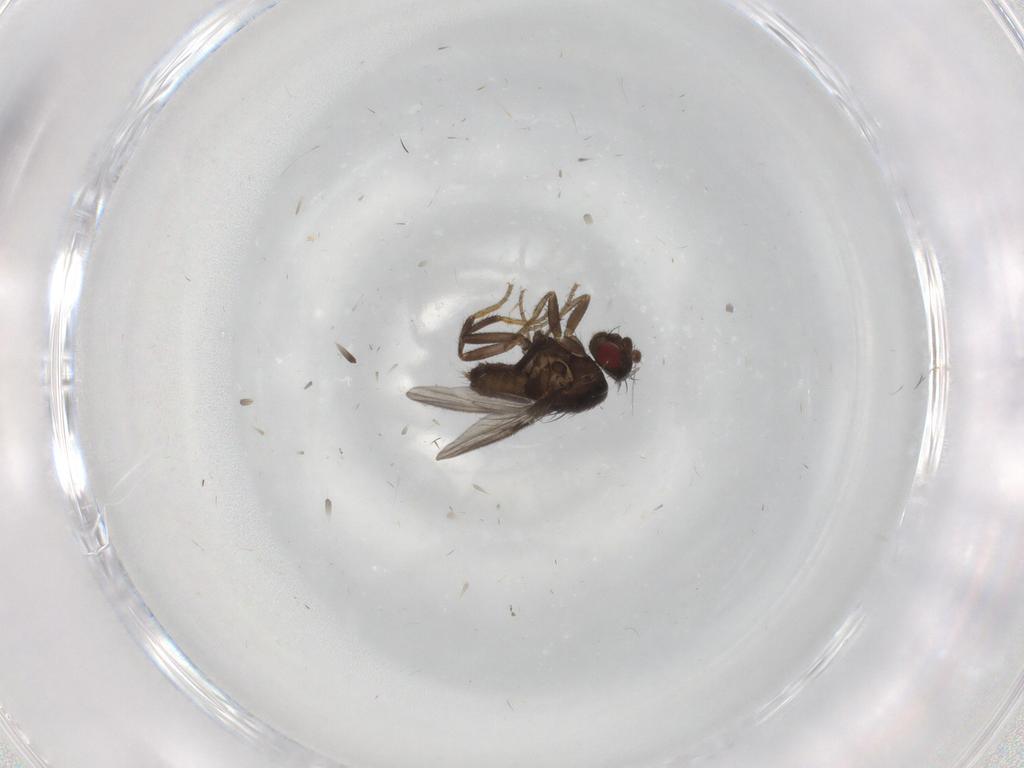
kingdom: Animalia
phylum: Arthropoda
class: Insecta
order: Diptera
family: Sphaeroceridae
